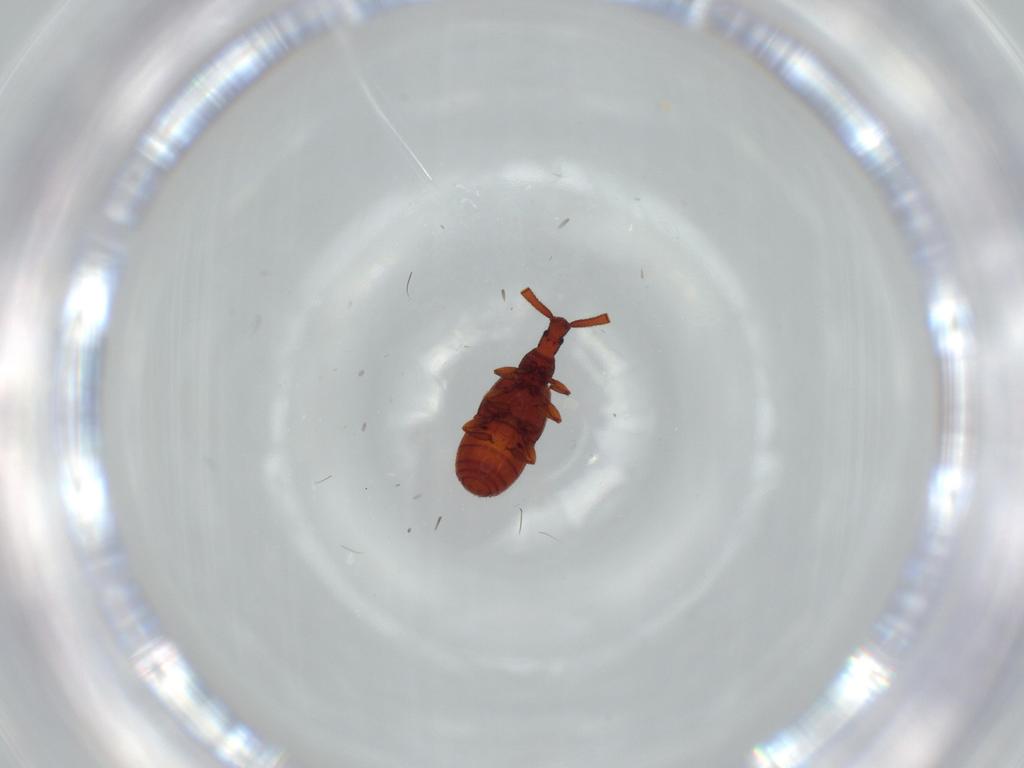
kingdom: Animalia
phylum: Arthropoda
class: Insecta
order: Coleoptera
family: Staphylinidae
